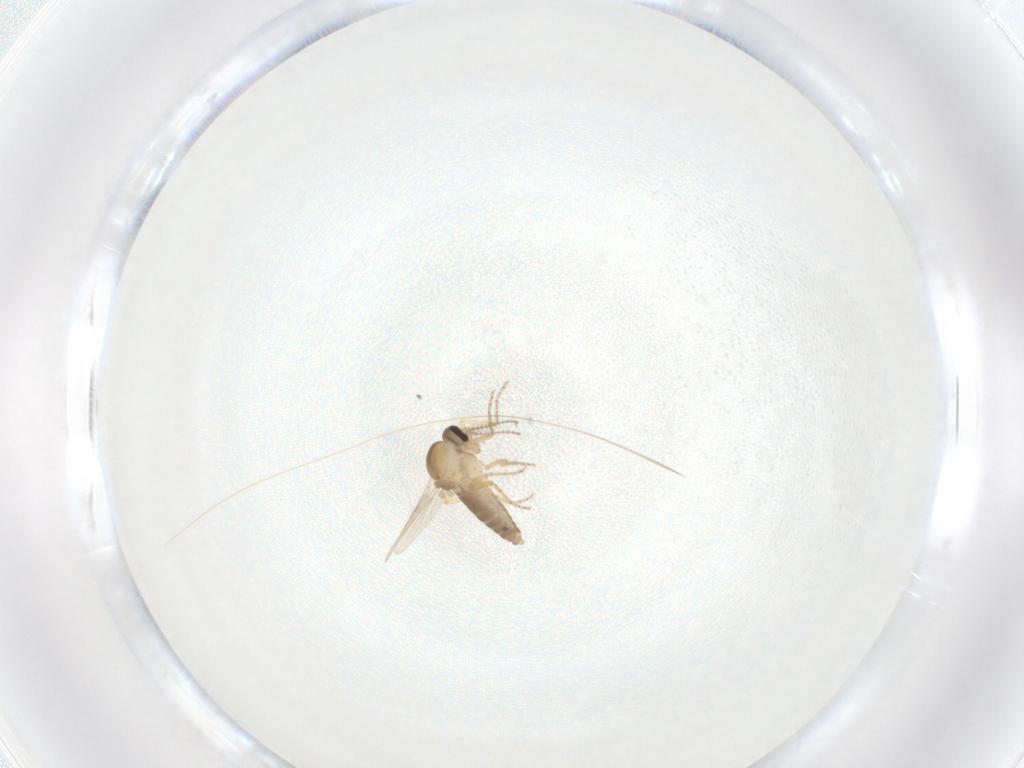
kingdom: Animalia
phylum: Arthropoda
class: Insecta
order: Diptera
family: Ceratopogonidae
